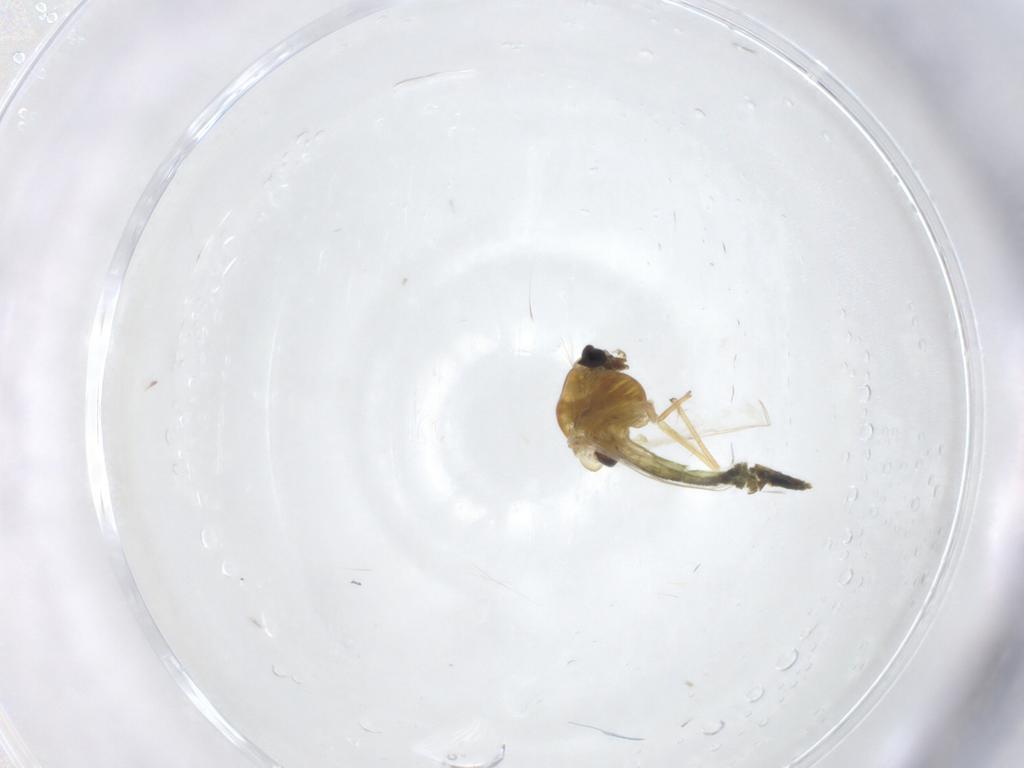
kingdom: Animalia
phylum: Arthropoda
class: Insecta
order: Diptera
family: Chironomidae
